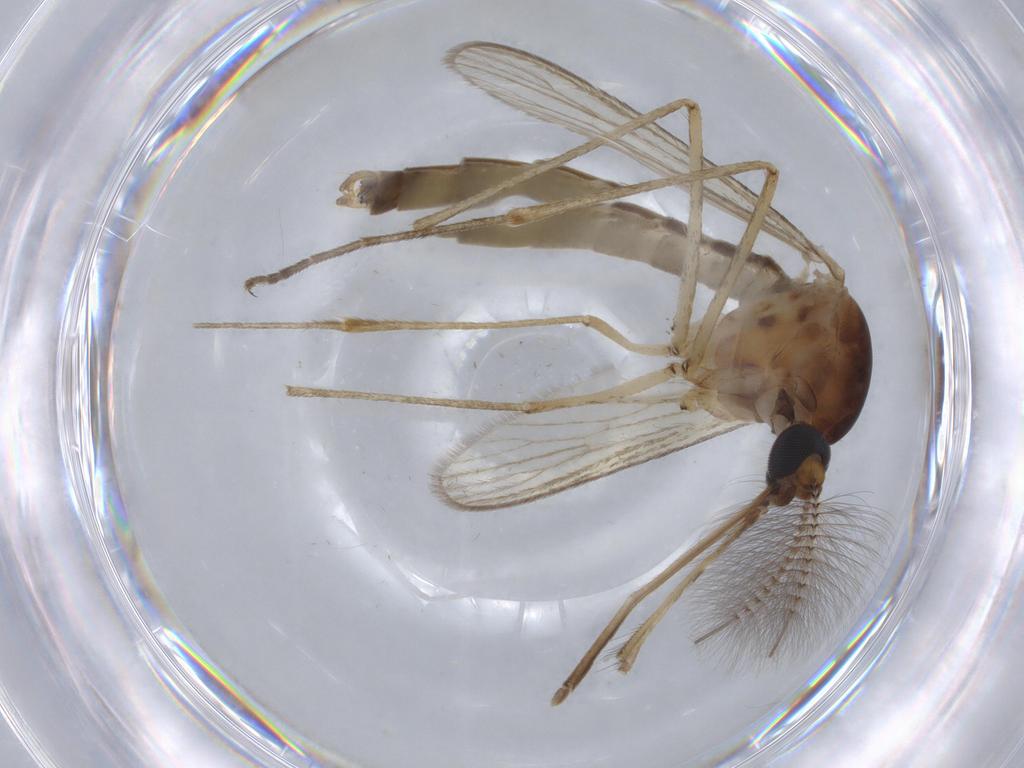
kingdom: Animalia
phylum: Arthropoda
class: Insecta
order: Diptera
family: Culicidae
